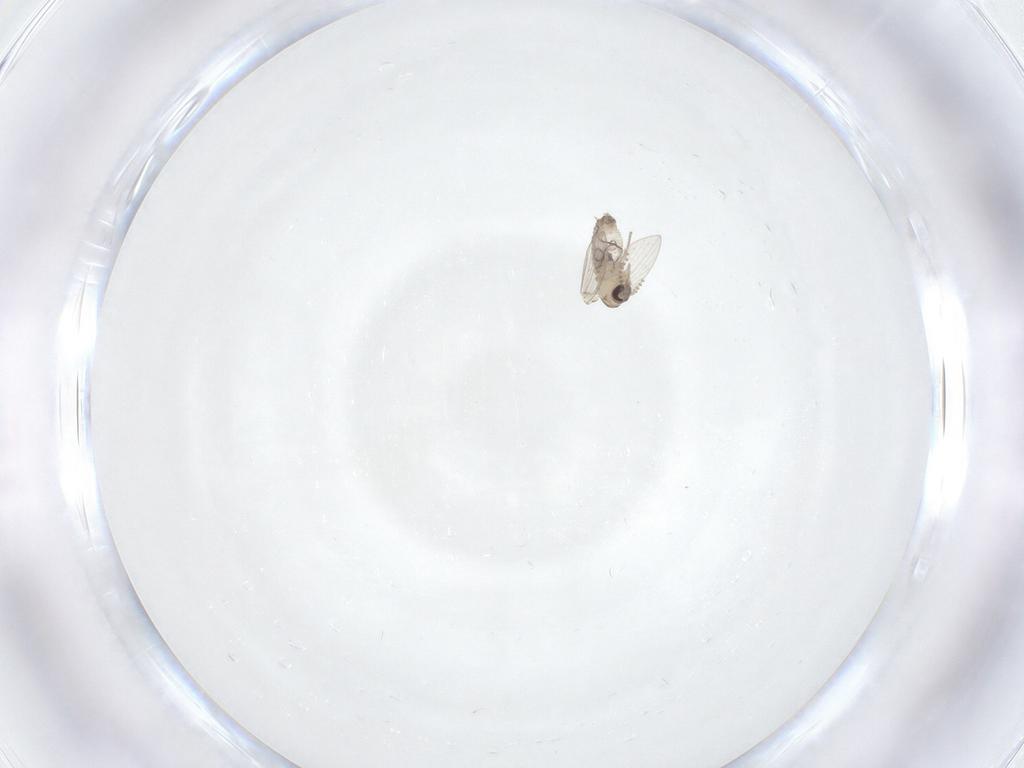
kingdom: Animalia
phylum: Arthropoda
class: Insecta
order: Diptera
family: Psychodidae
